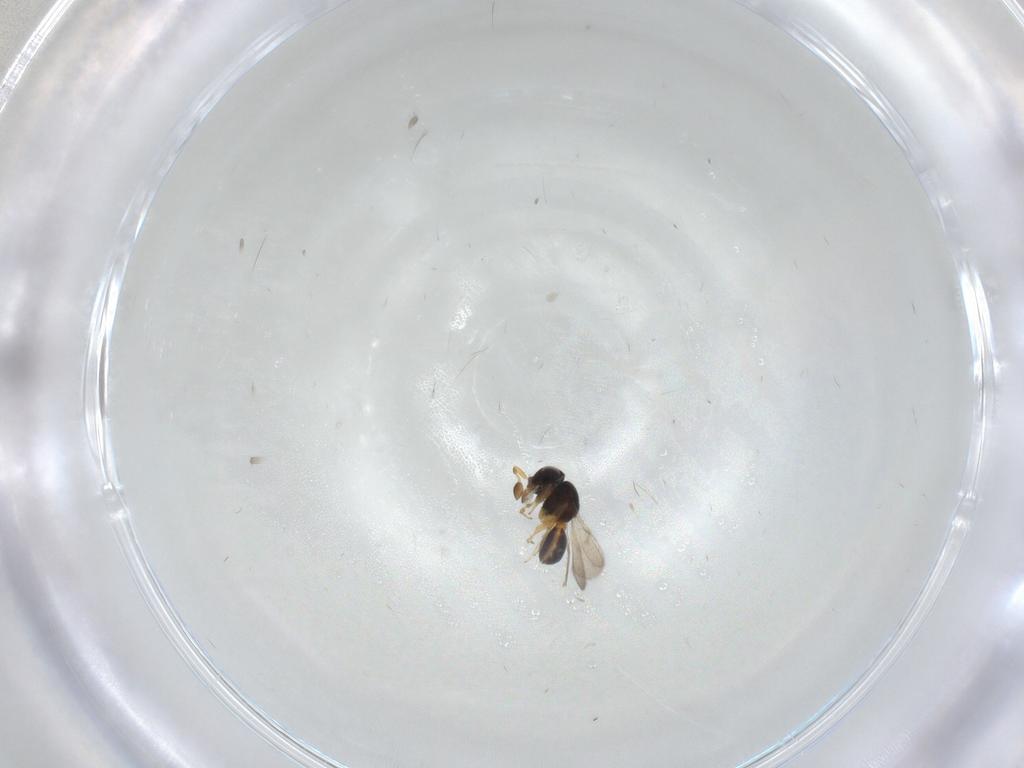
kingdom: Animalia
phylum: Arthropoda
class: Insecta
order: Hymenoptera
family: Scelionidae
